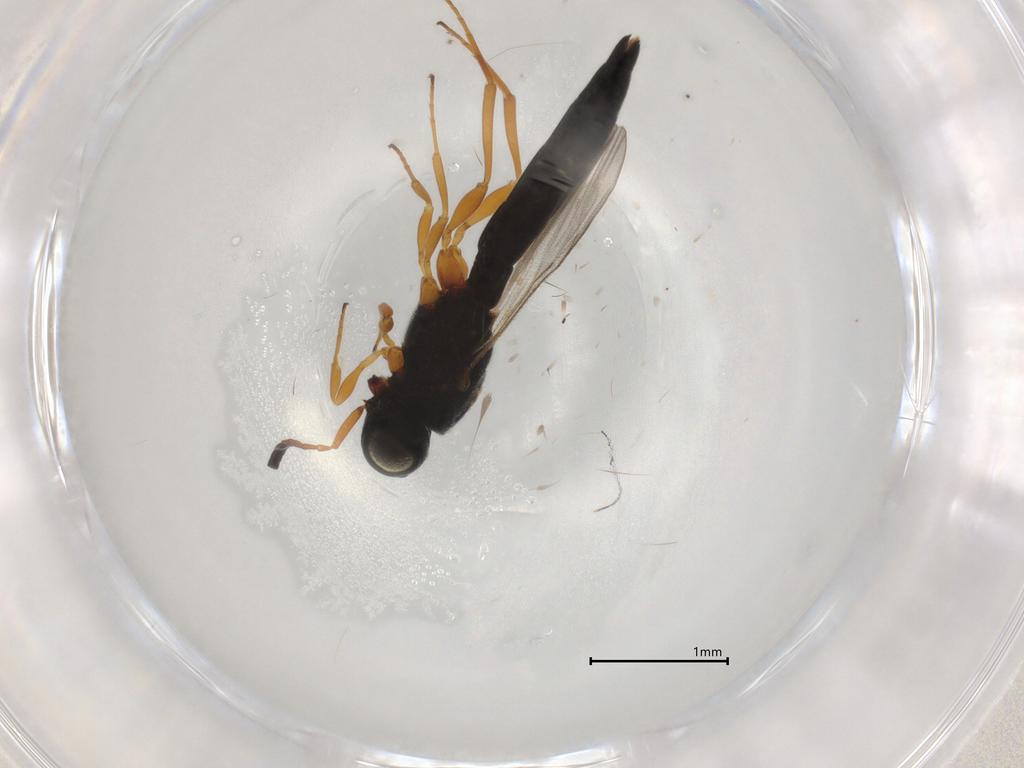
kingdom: Animalia
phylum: Arthropoda
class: Insecta
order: Hymenoptera
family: Scelionidae
